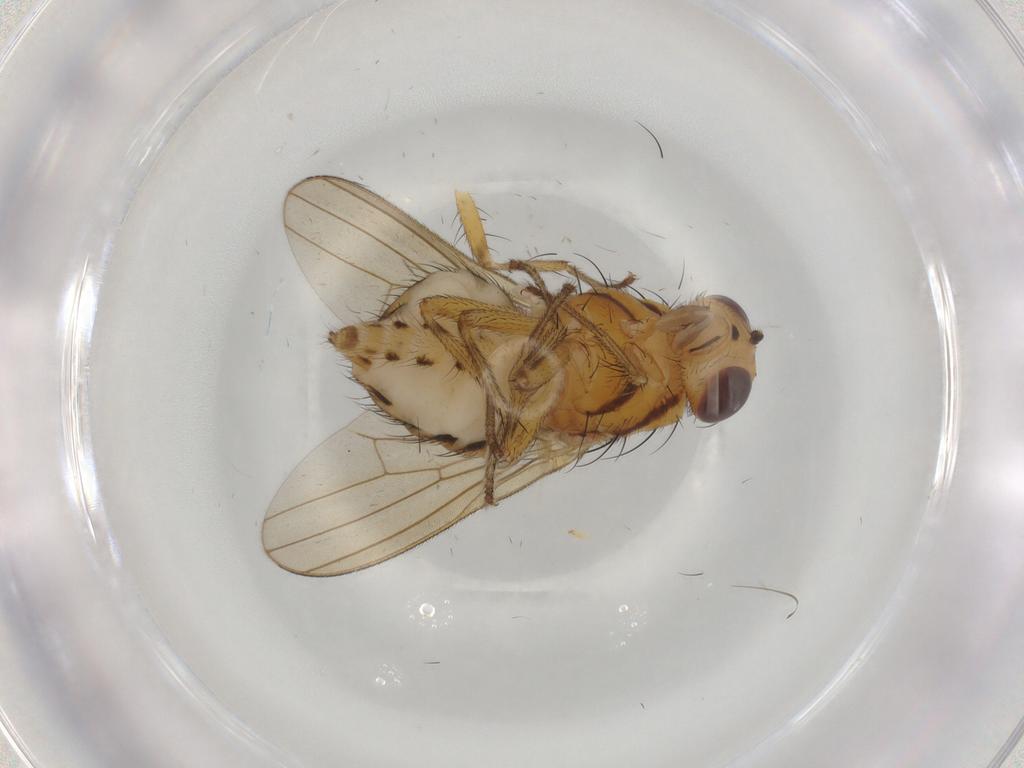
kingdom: Animalia
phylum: Arthropoda
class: Insecta
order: Diptera
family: Lauxaniidae
